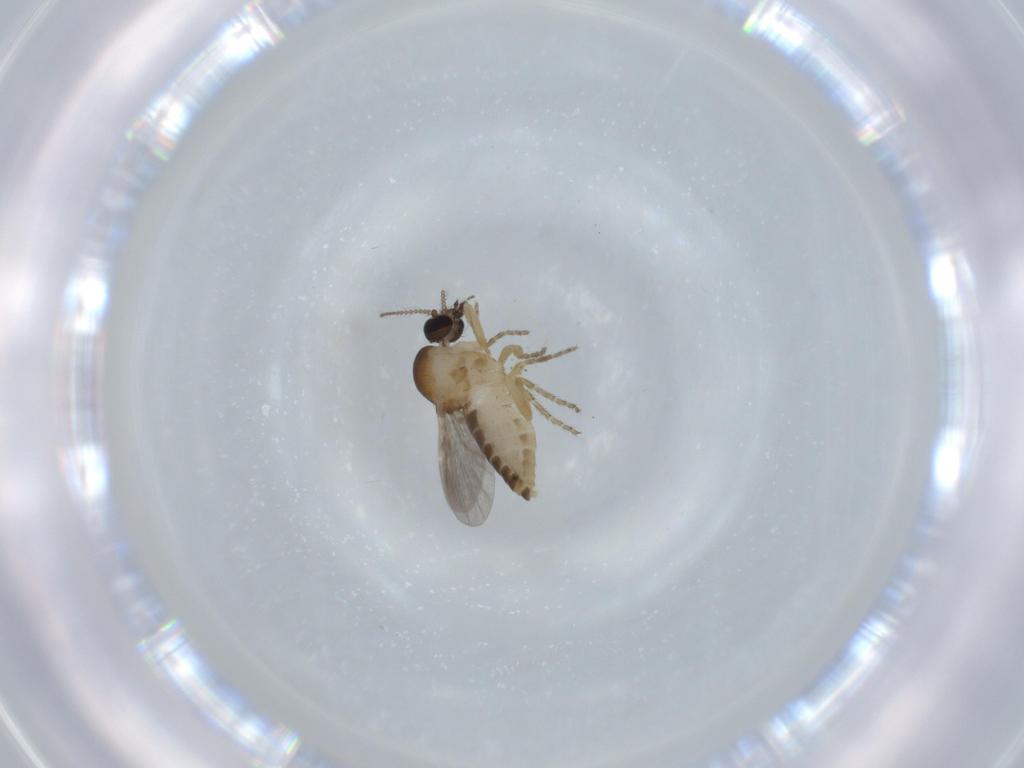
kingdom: Animalia
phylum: Arthropoda
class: Insecta
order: Diptera
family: Ceratopogonidae
